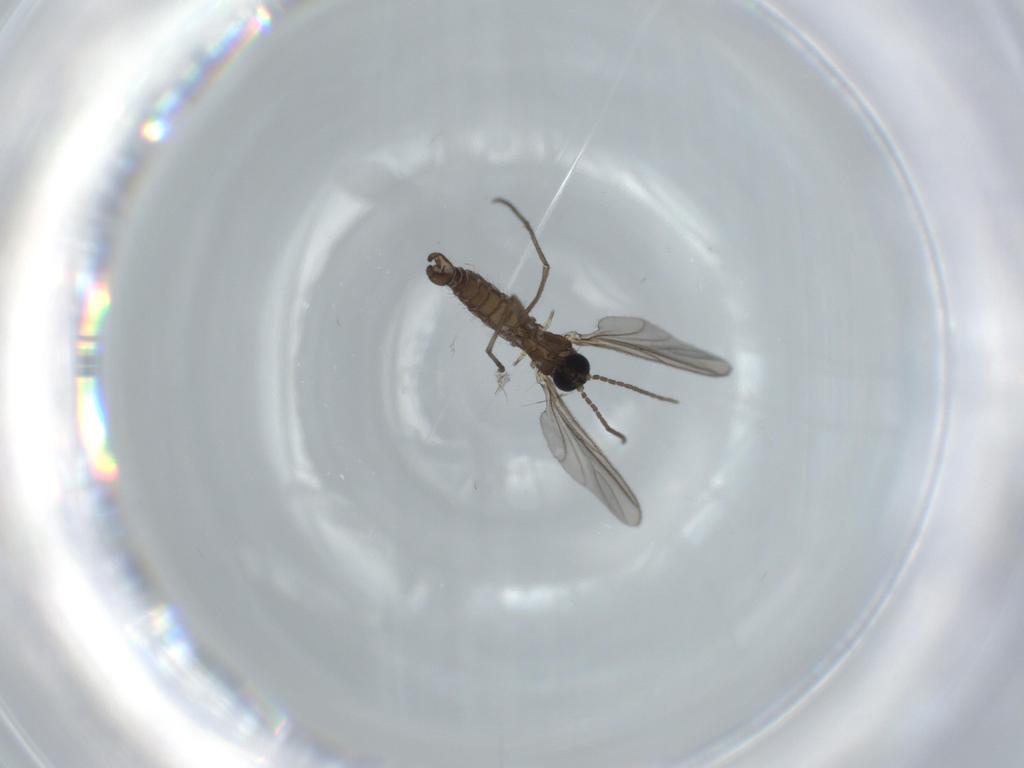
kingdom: Animalia
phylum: Arthropoda
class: Insecta
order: Diptera
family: Sciaridae
